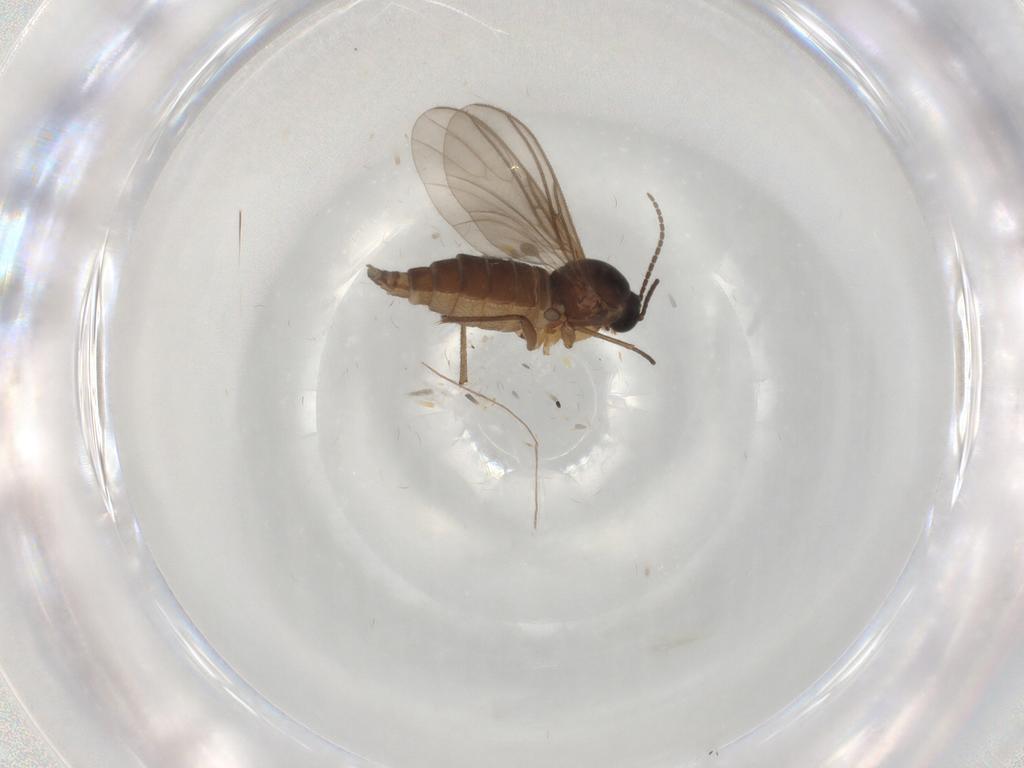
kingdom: Animalia
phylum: Arthropoda
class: Insecta
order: Diptera
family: Sciaridae
